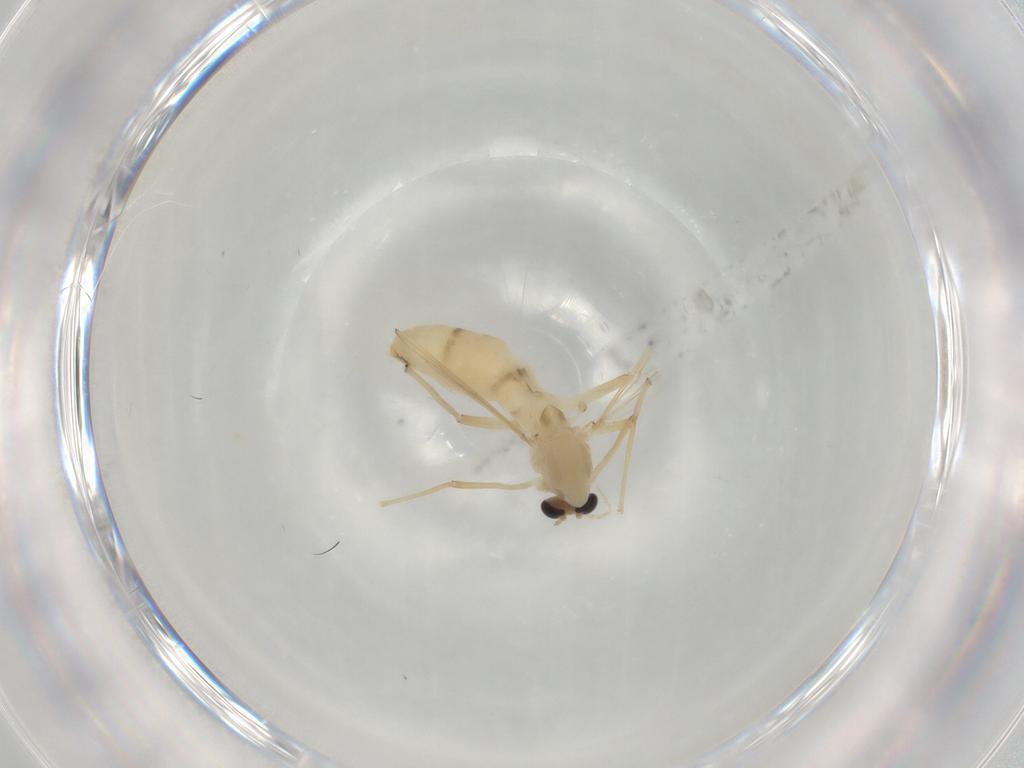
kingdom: Animalia
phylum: Arthropoda
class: Insecta
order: Diptera
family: Chironomidae
